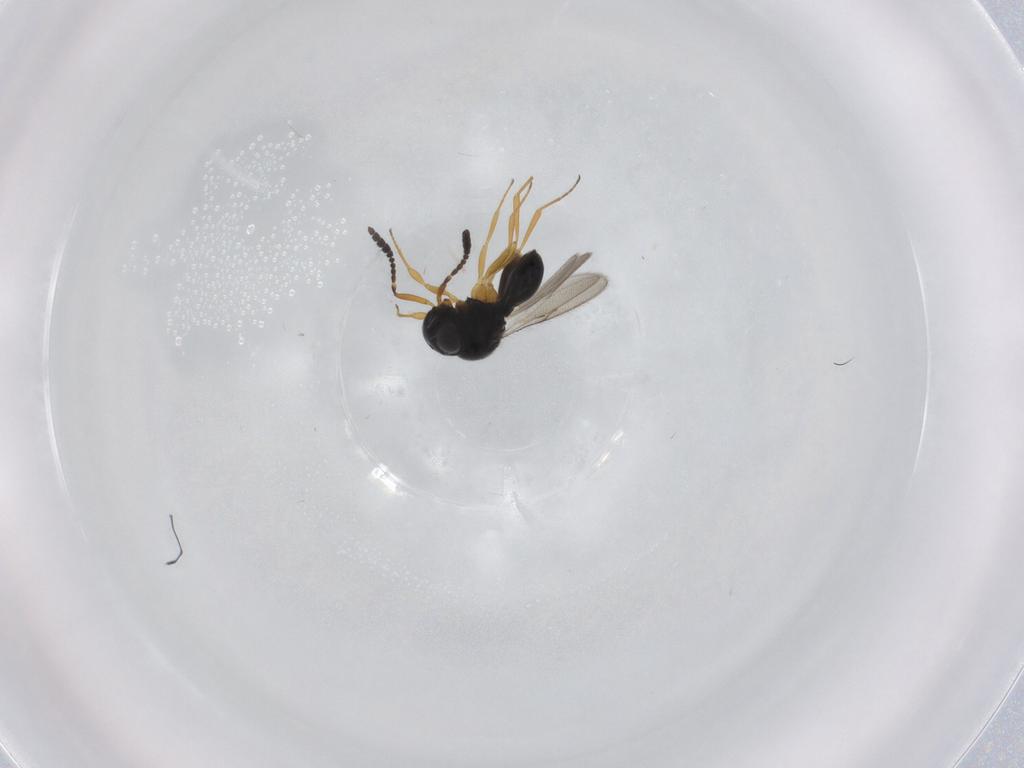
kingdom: Animalia
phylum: Arthropoda
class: Insecta
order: Hymenoptera
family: Scelionidae
